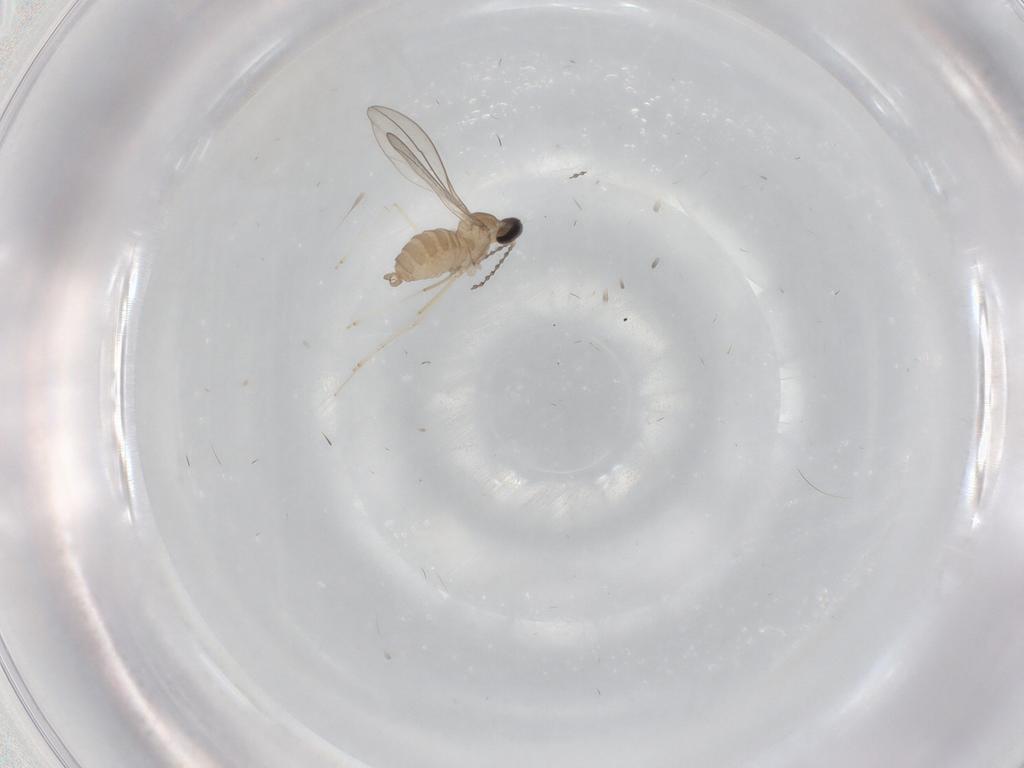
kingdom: Animalia
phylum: Arthropoda
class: Insecta
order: Diptera
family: Cecidomyiidae
